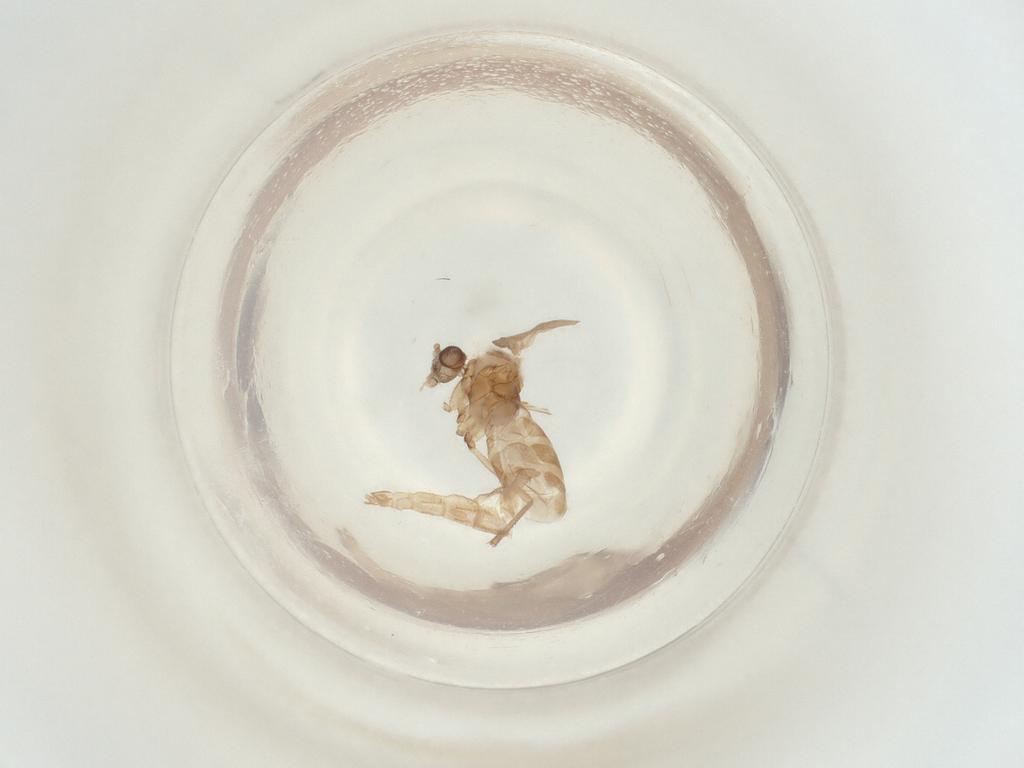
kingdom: Animalia
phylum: Arthropoda
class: Insecta
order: Diptera
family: Sciaridae
